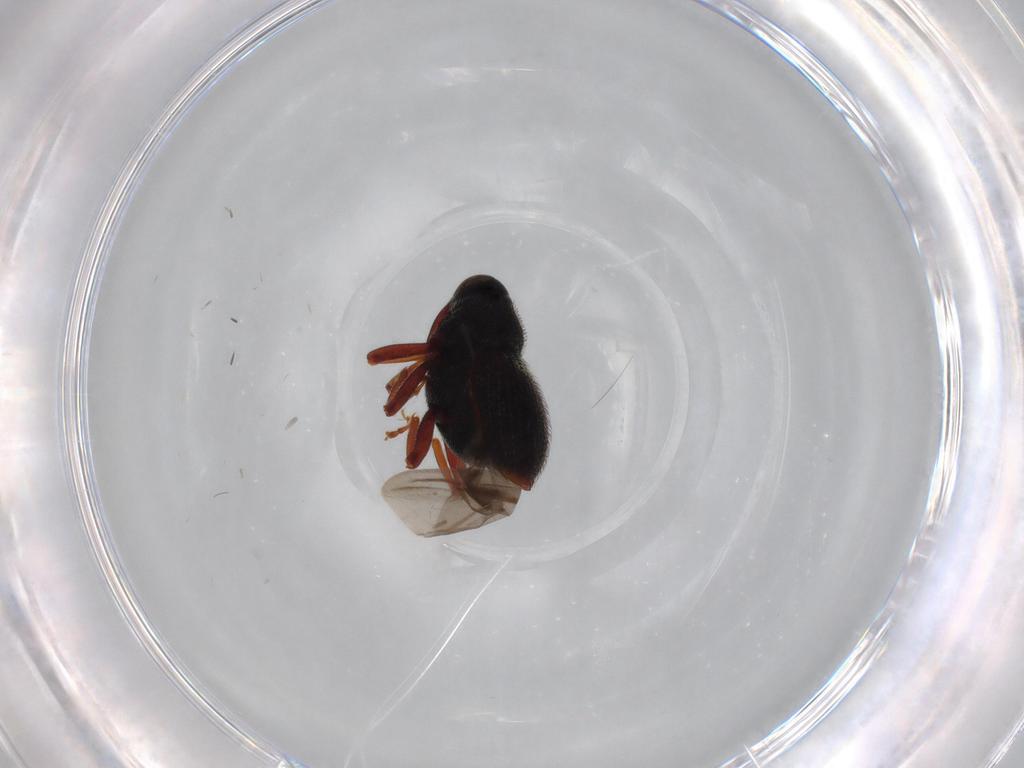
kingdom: Animalia
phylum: Arthropoda
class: Insecta
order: Coleoptera
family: Curculionidae
